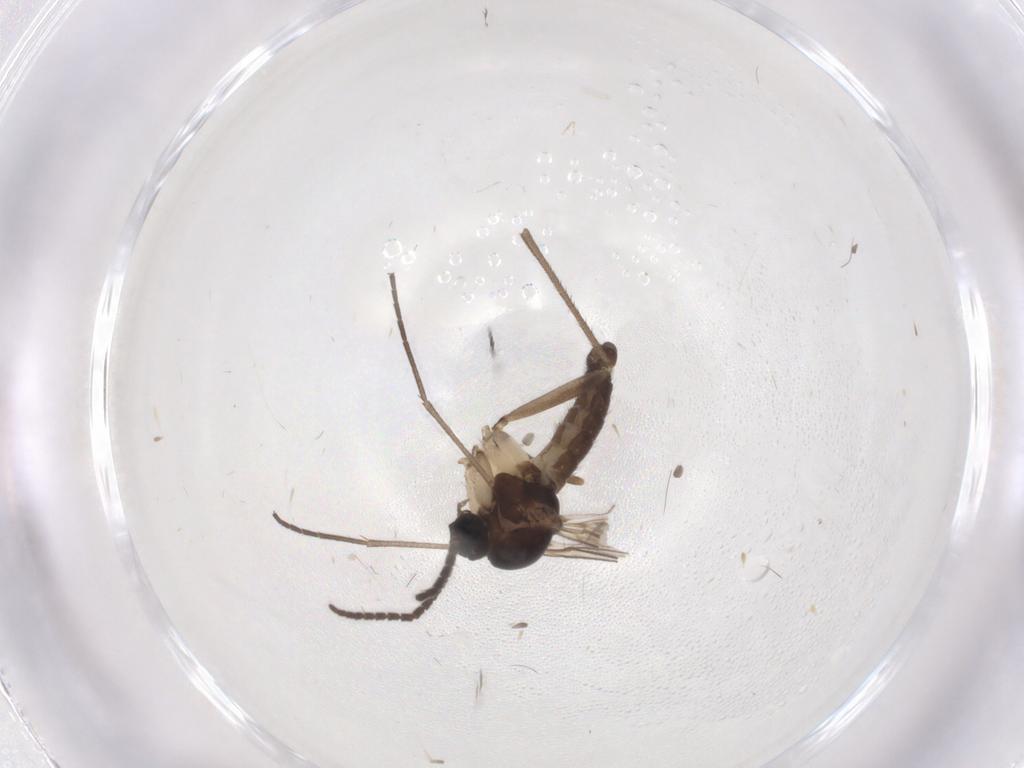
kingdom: Animalia
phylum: Arthropoda
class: Insecta
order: Diptera
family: Sciaridae
